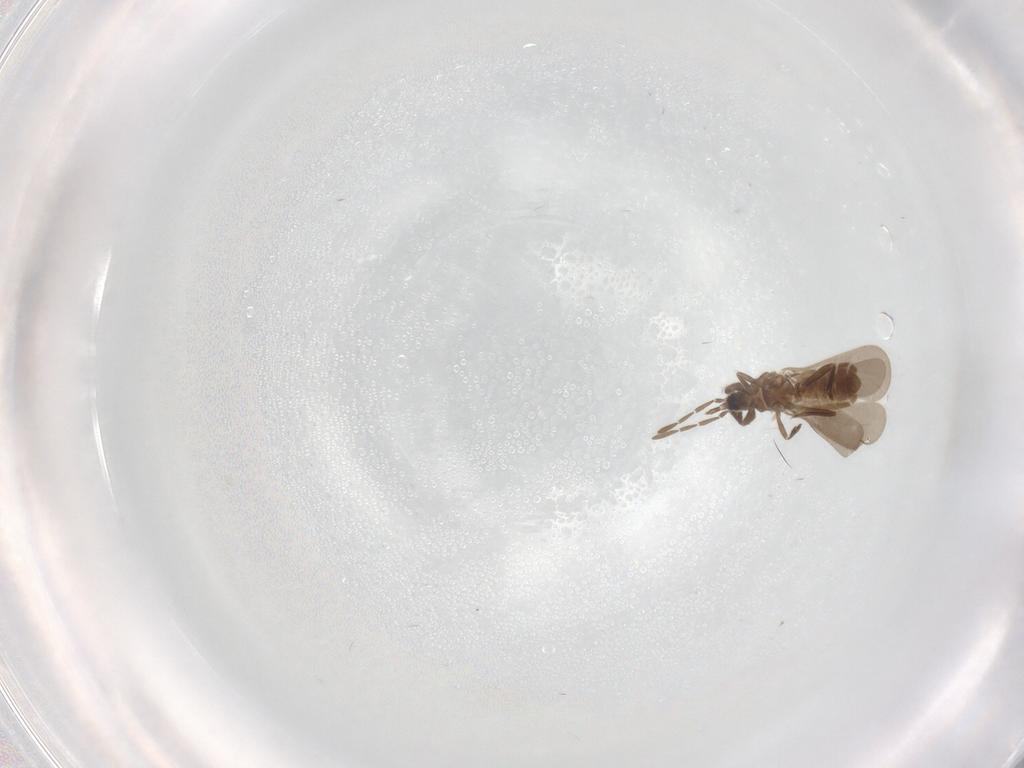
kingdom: Animalia
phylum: Arthropoda
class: Insecta
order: Hemiptera
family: Enicocephalidae
